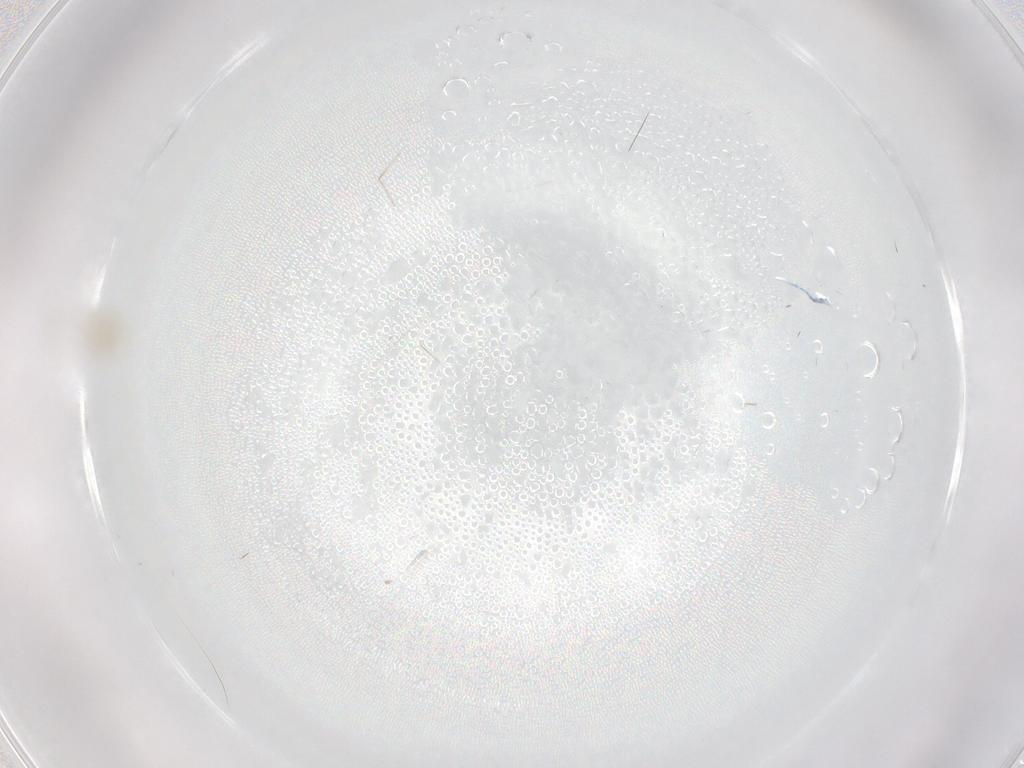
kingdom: Animalia
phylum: Arthropoda
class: Insecta
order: Diptera
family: Cecidomyiidae
